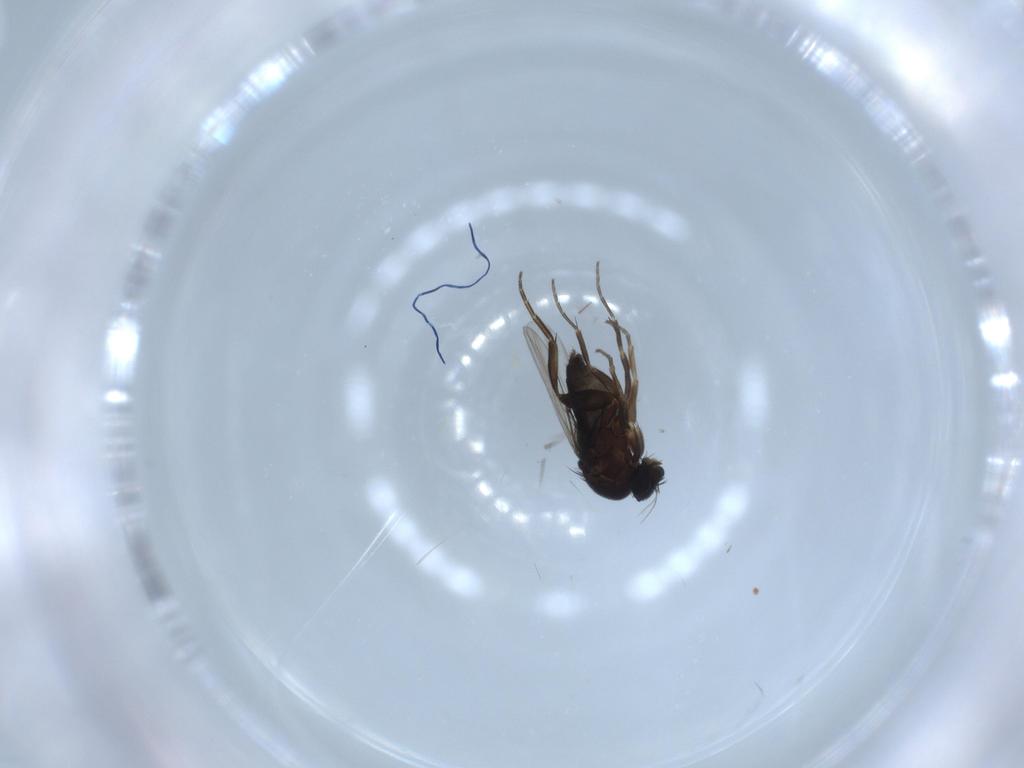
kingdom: Animalia
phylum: Arthropoda
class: Insecta
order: Diptera
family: Phoridae
